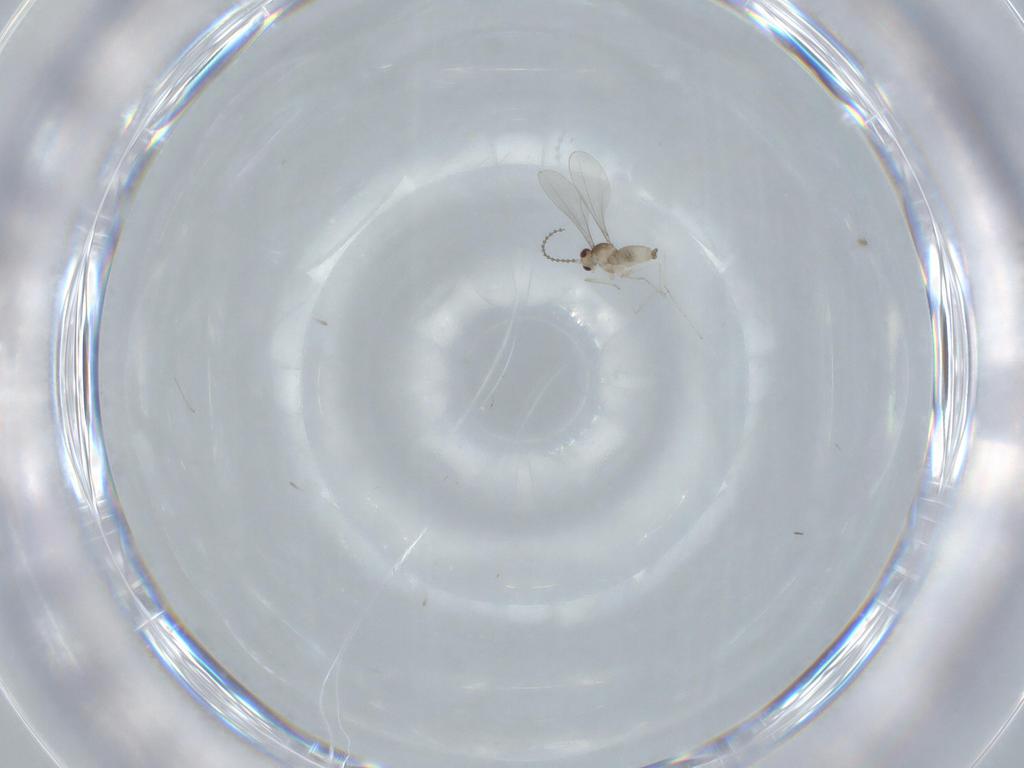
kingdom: Animalia
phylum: Arthropoda
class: Insecta
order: Diptera
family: Cecidomyiidae
